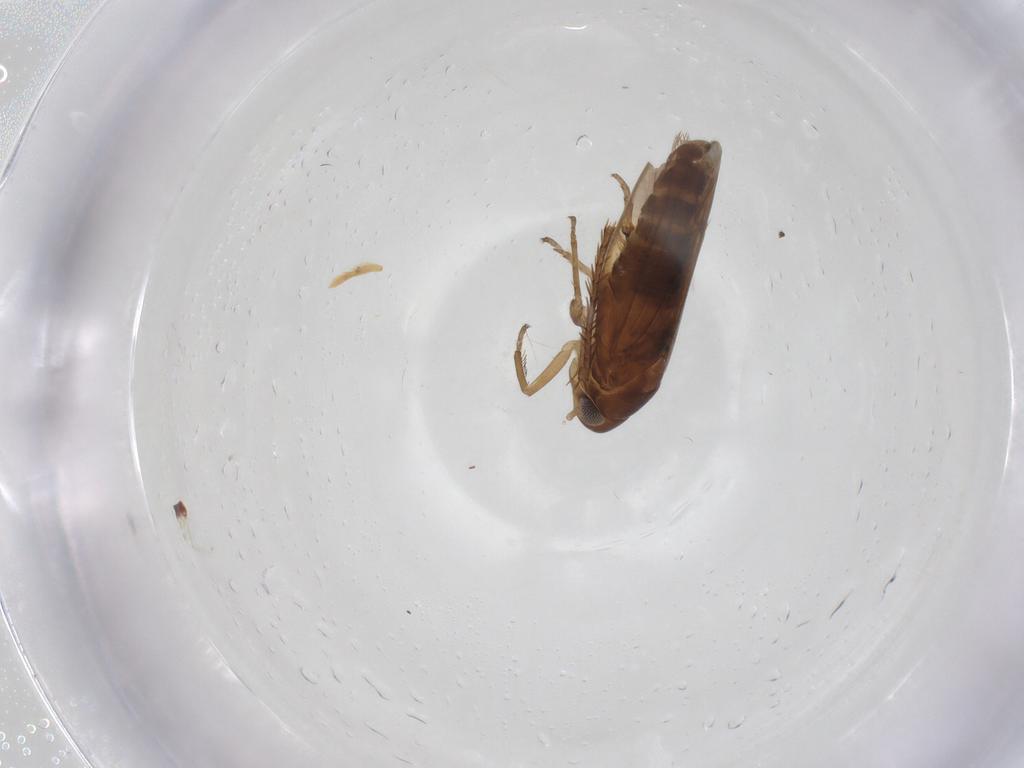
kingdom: Animalia
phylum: Arthropoda
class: Insecta
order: Hemiptera
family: Cicadellidae
